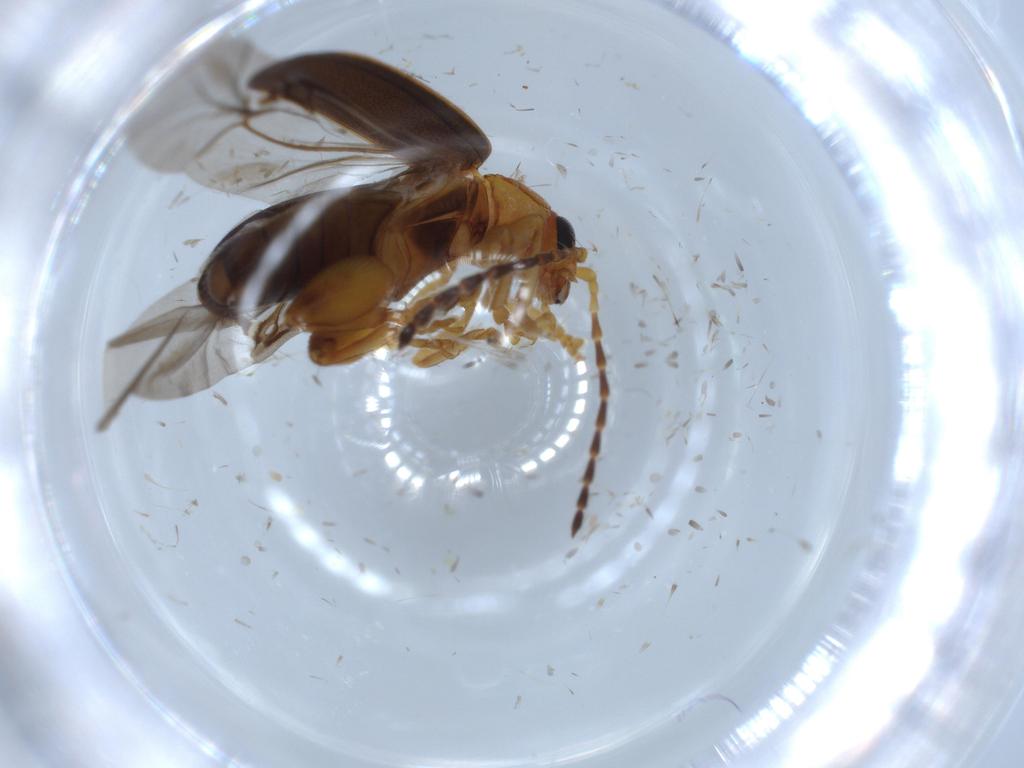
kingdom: Animalia
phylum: Arthropoda
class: Insecta
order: Coleoptera
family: Chrysomelidae
